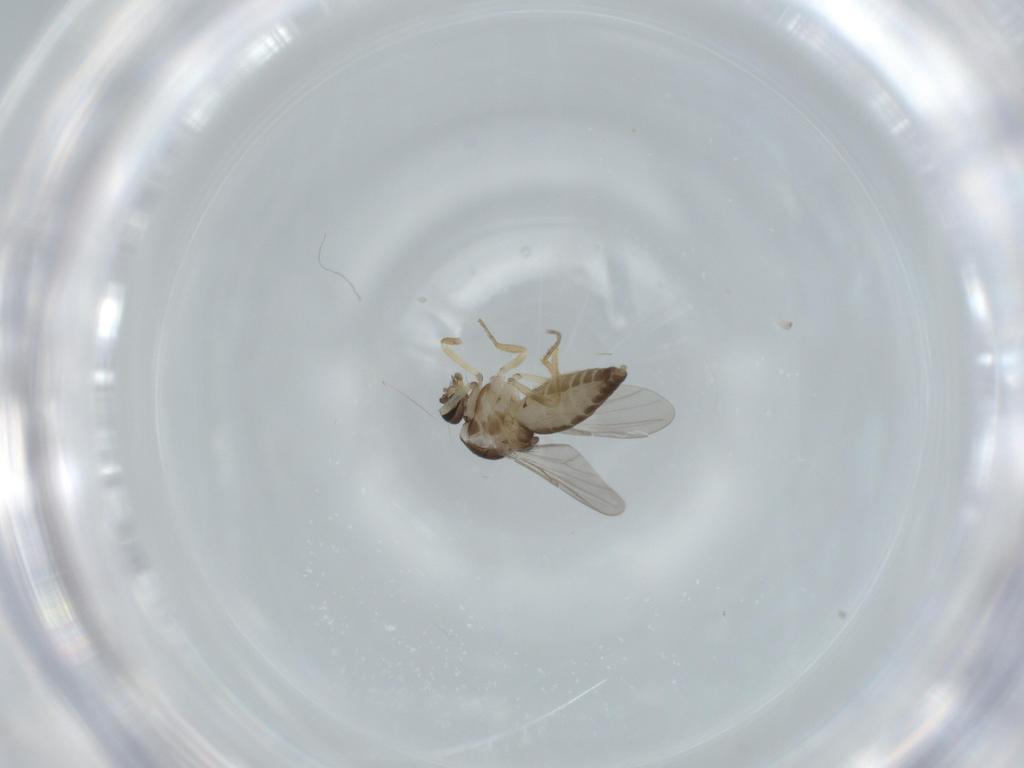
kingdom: Animalia
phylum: Arthropoda
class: Insecta
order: Diptera
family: Ceratopogonidae
